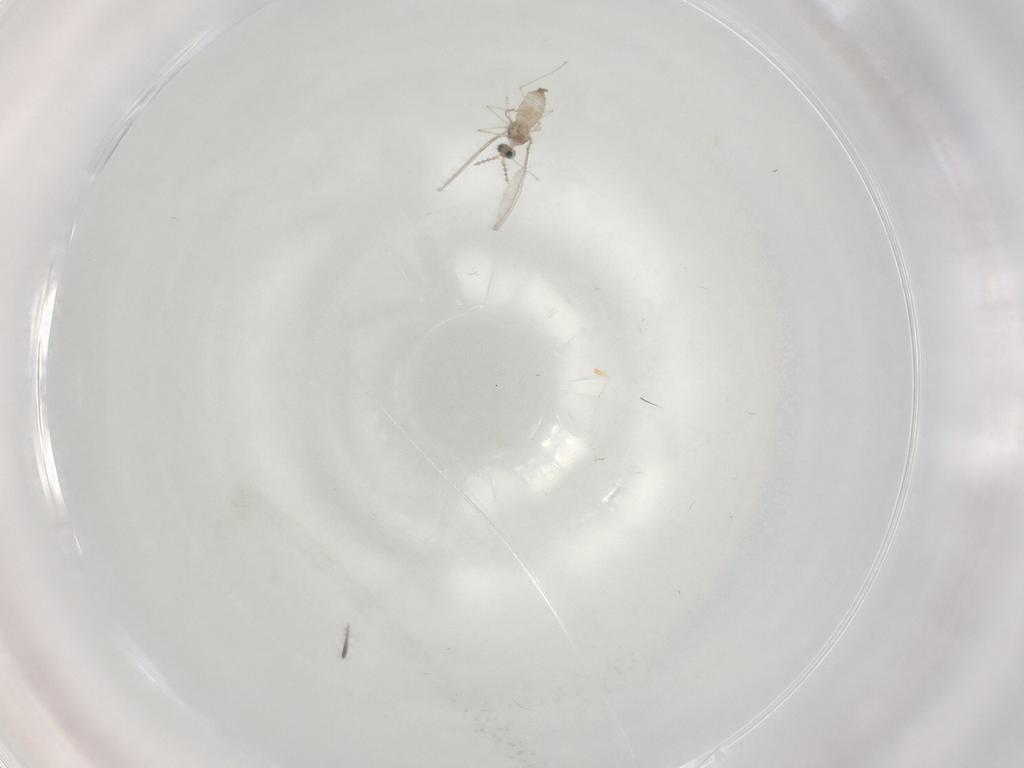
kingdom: Animalia
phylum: Arthropoda
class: Insecta
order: Diptera
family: Cecidomyiidae
